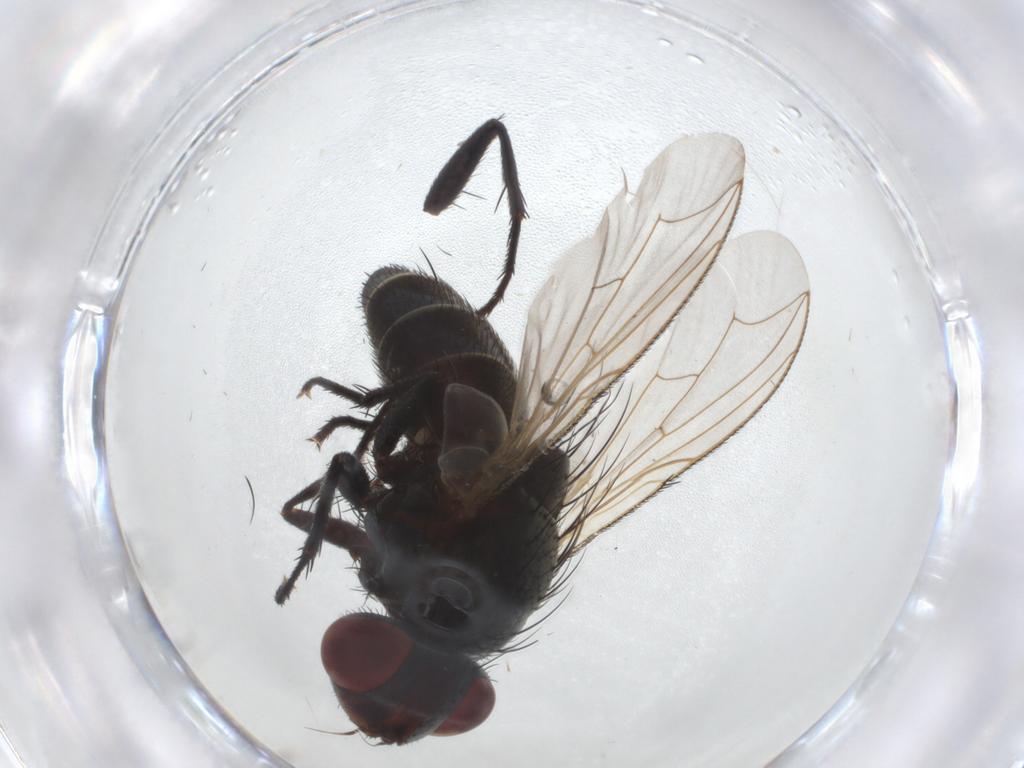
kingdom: Animalia
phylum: Arthropoda
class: Insecta
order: Diptera
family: Sarcophagidae
